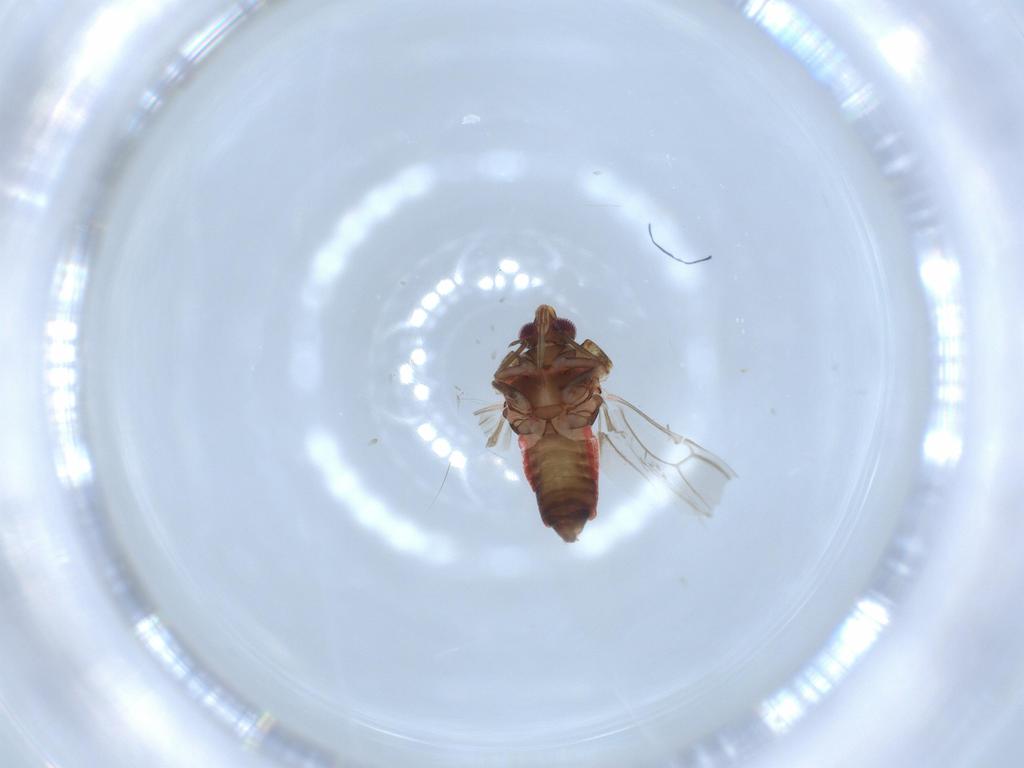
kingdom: Animalia
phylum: Arthropoda
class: Insecta
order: Hemiptera
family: Miridae
